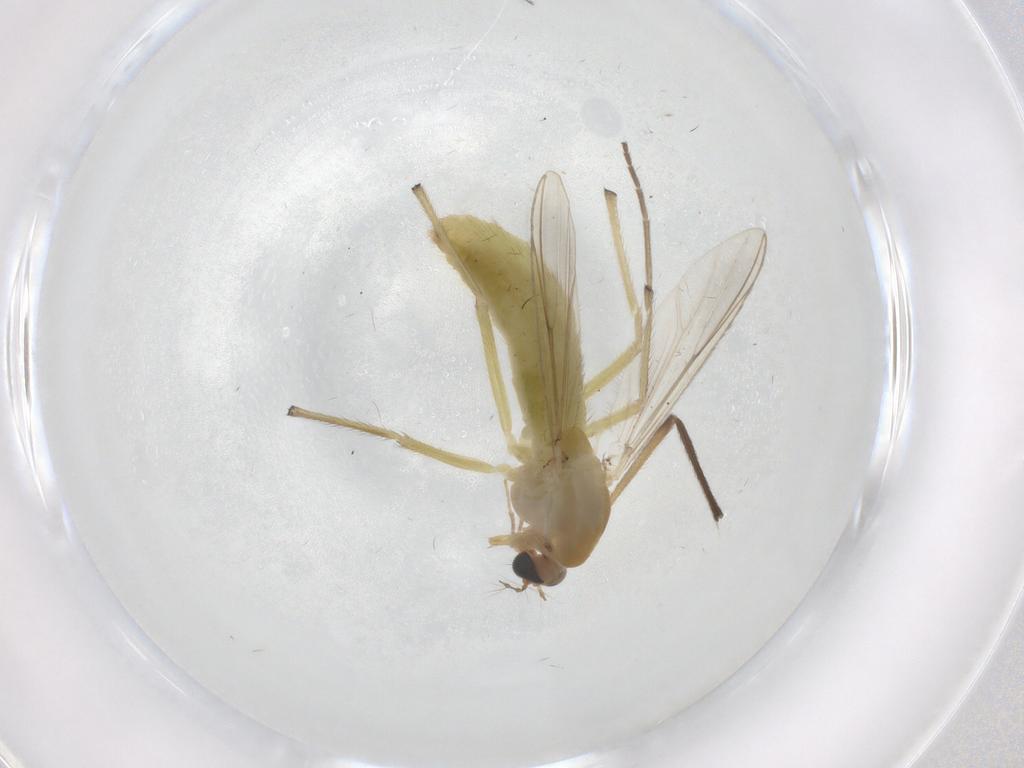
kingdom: Animalia
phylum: Arthropoda
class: Insecta
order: Diptera
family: Chironomidae
